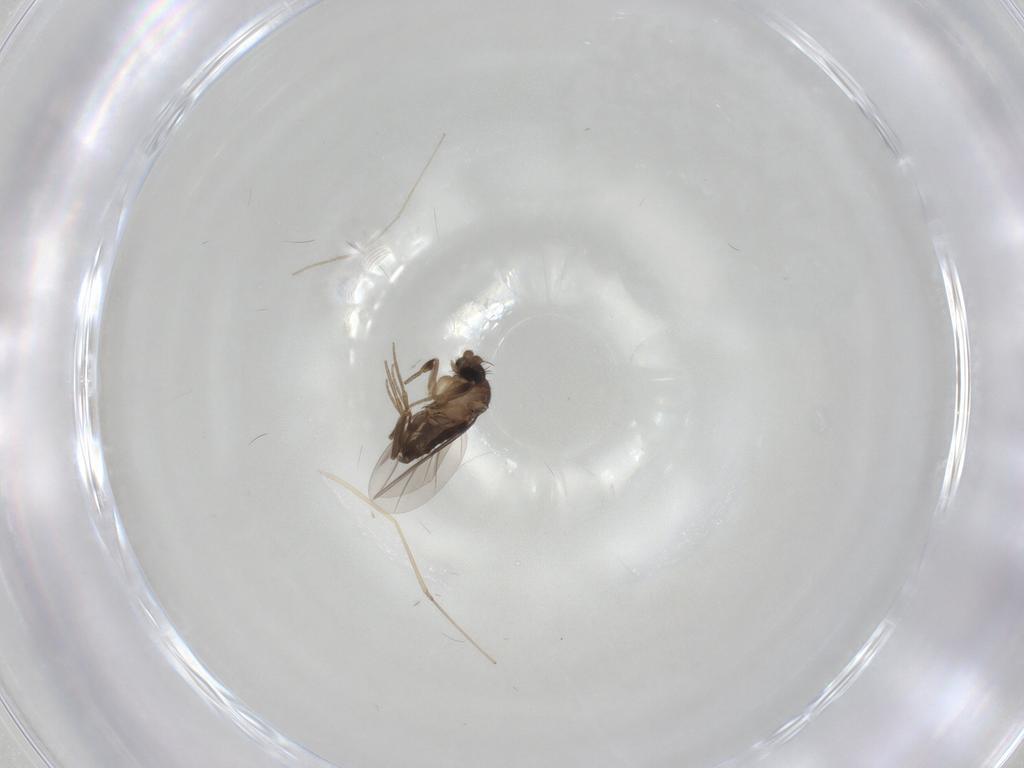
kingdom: Animalia
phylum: Arthropoda
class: Insecta
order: Diptera
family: Phoridae
